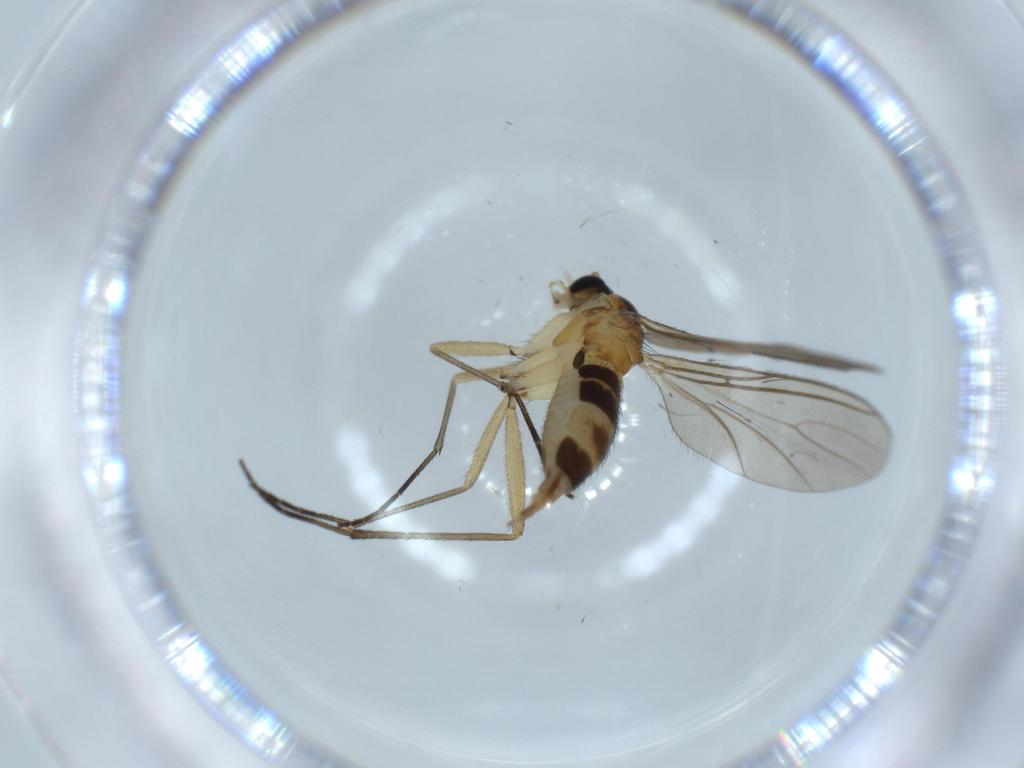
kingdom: Animalia
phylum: Arthropoda
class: Insecta
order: Diptera
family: Sciaridae
